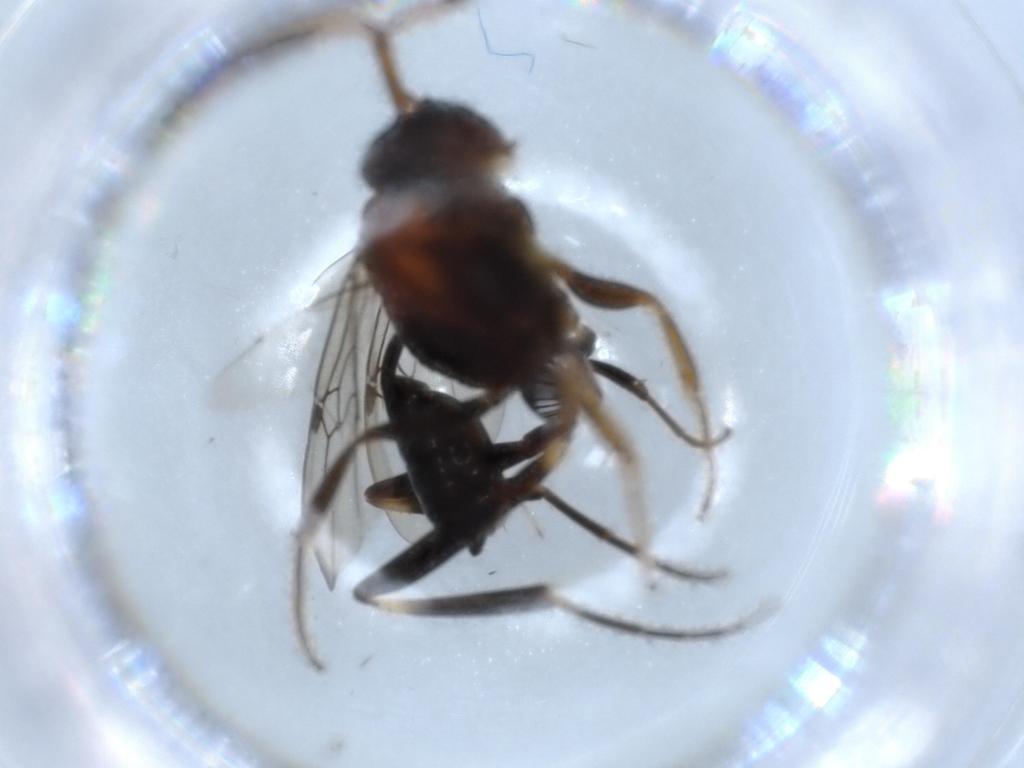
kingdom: Animalia
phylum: Arthropoda
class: Insecta
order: Hymenoptera
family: Evaniidae
